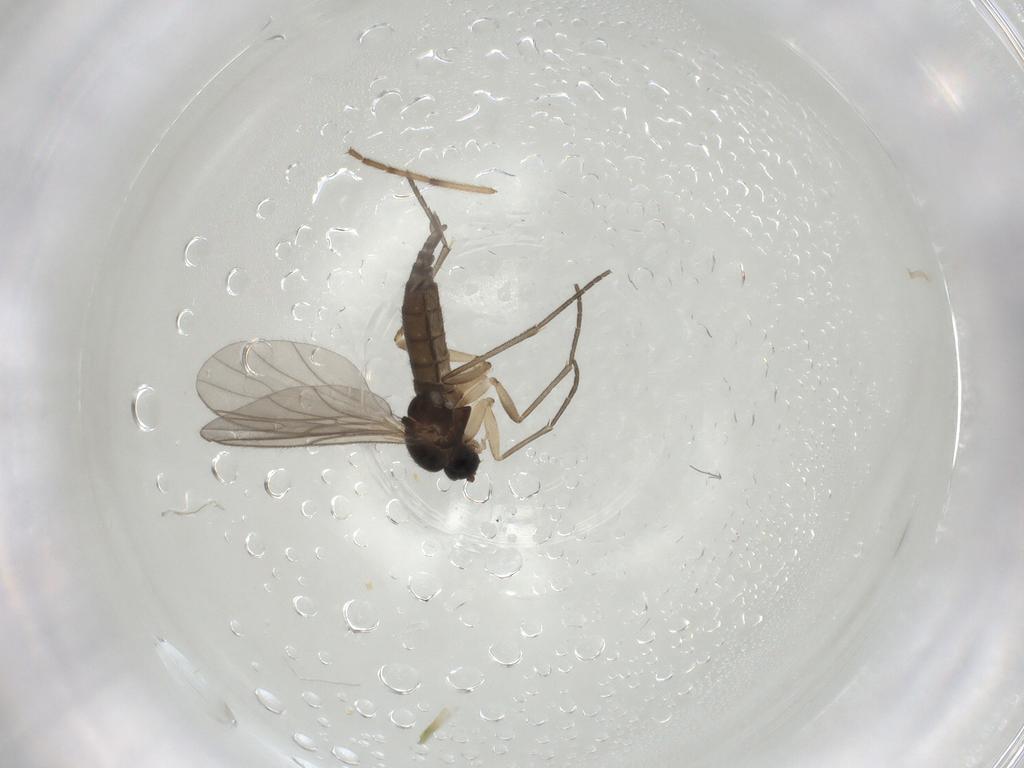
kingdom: Animalia
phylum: Arthropoda
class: Insecta
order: Diptera
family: Sciaridae
